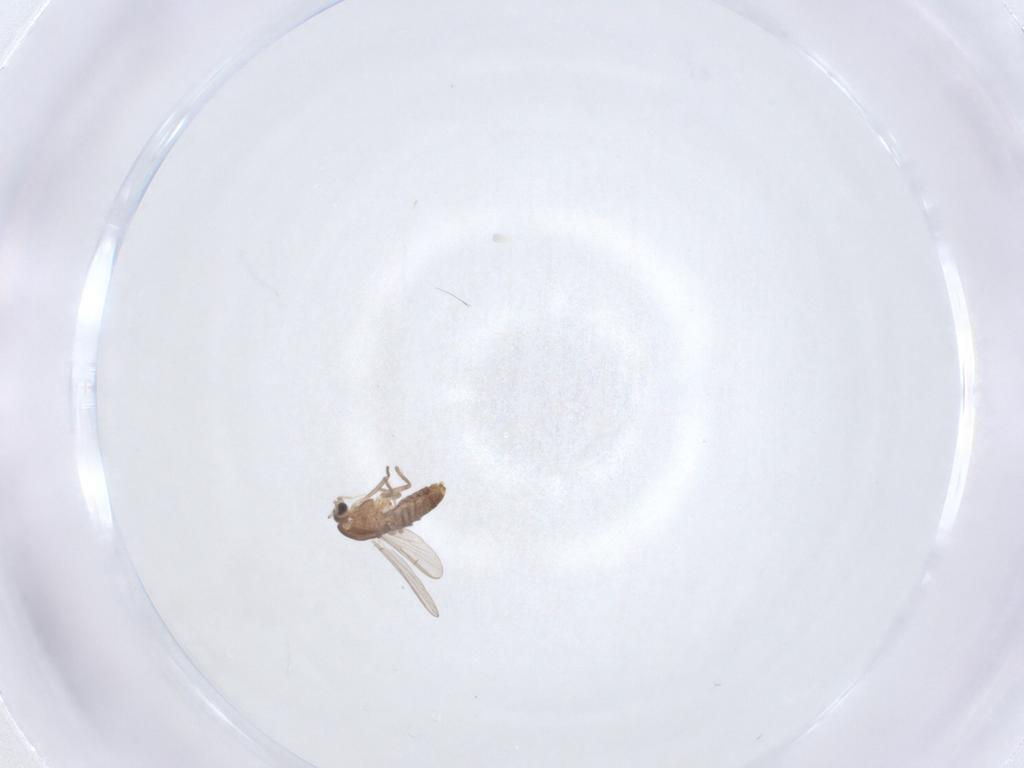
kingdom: Animalia
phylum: Arthropoda
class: Insecta
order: Diptera
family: Chironomidae
